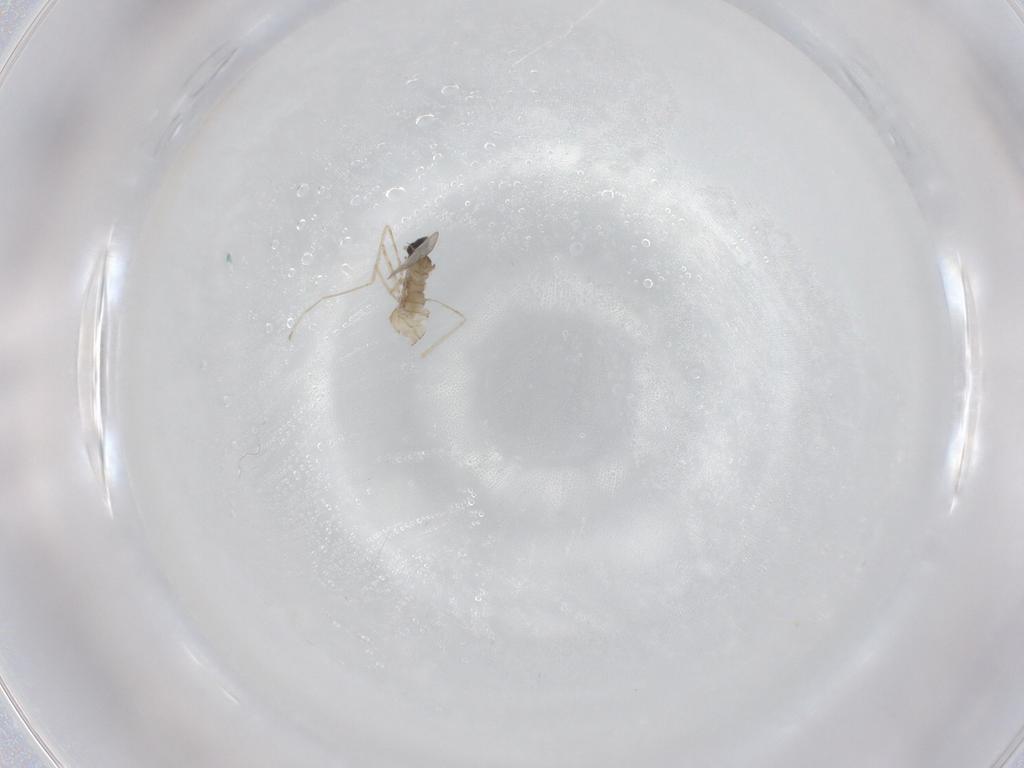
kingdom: Animalia
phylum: Arthropoda
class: Insecta
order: Diptera
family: Cecidomyiidae
